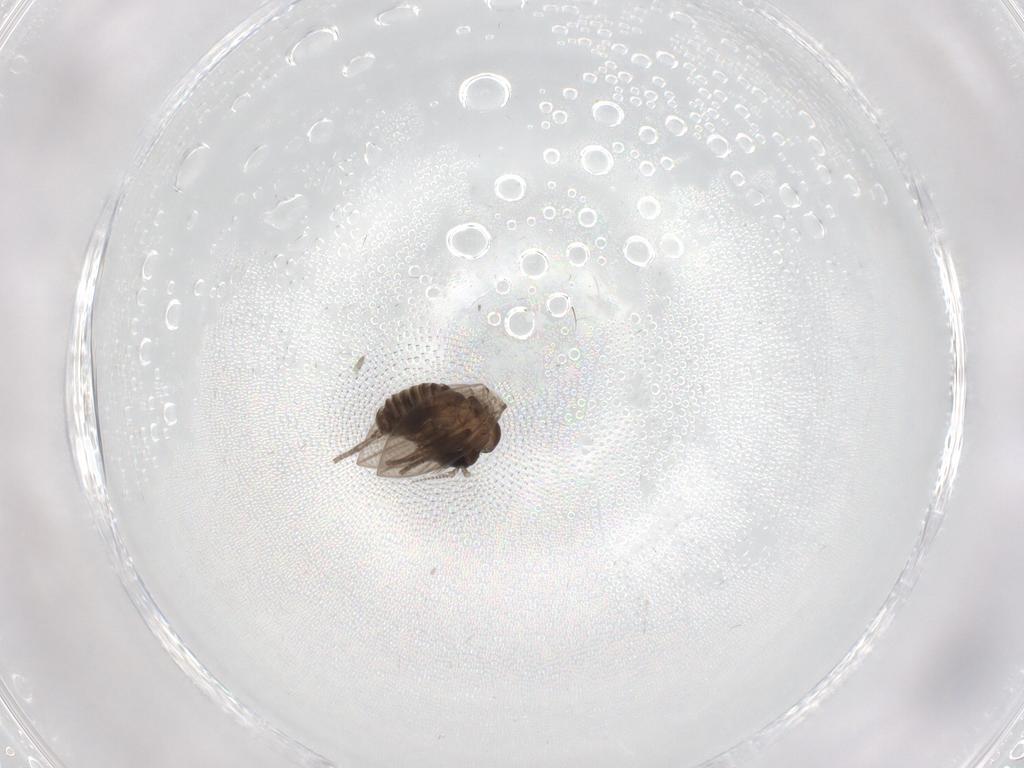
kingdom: Animalia
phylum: Arthropoda
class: Insecta
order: Diptera
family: Psychodidae
